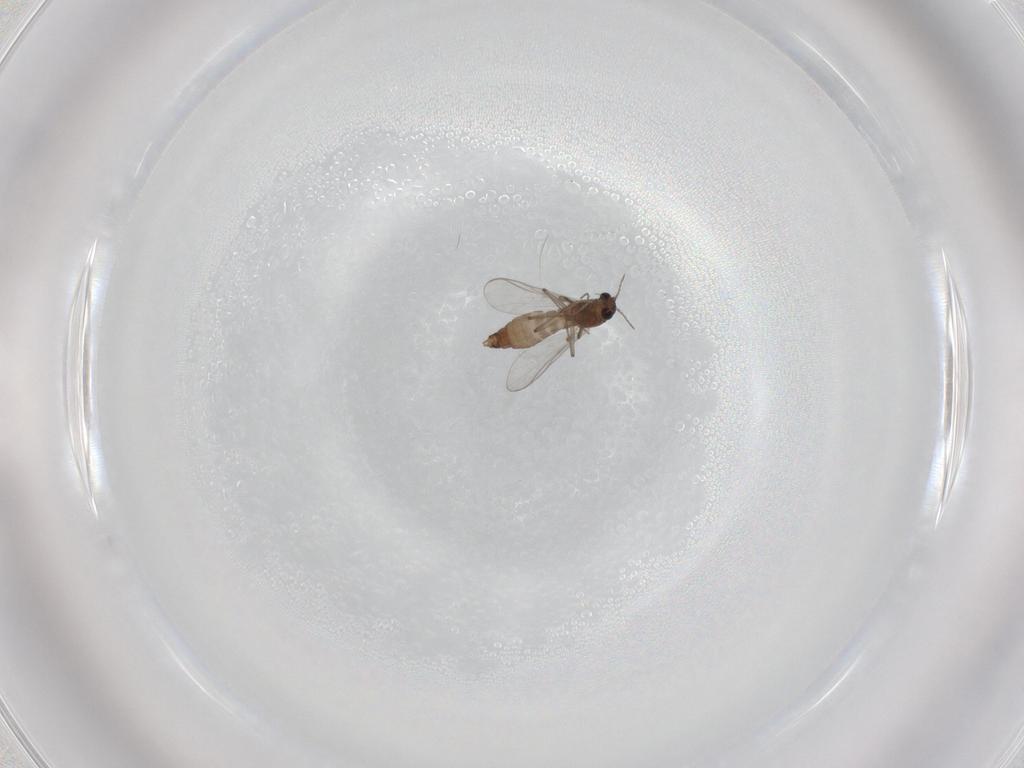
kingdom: Animalia
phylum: Arthropoda
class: Insecta
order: Diptera
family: Chironomidae
